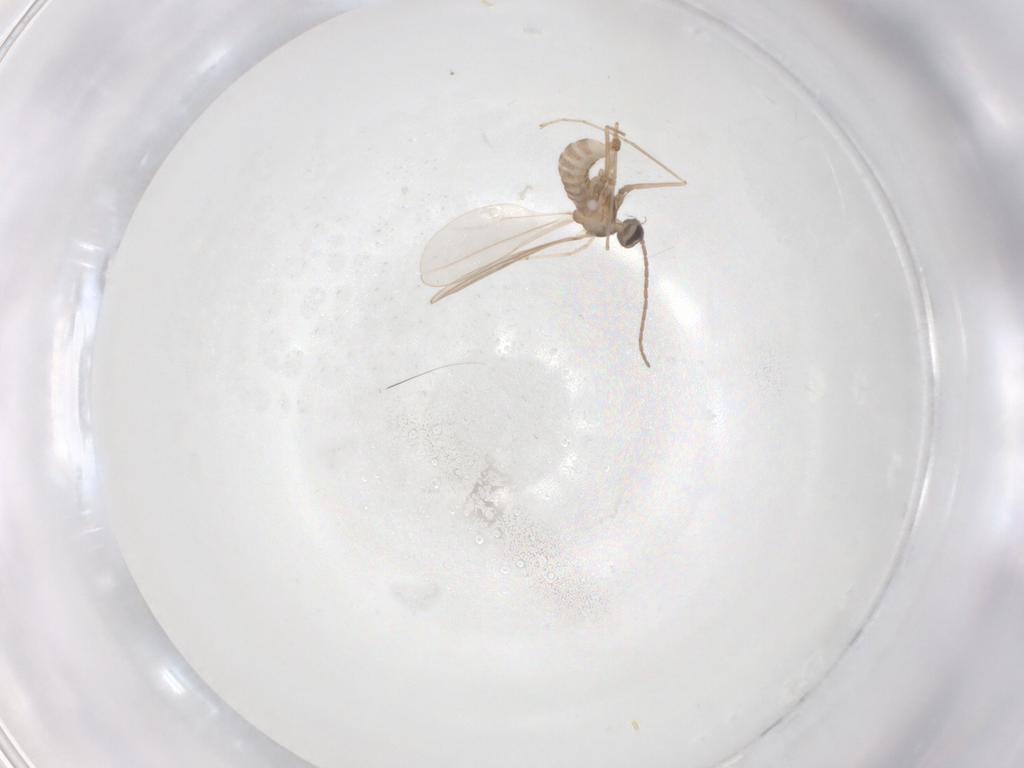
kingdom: Animalia
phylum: Arthropoda
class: Insecta
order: Diptera
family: Cecidomyiidae
